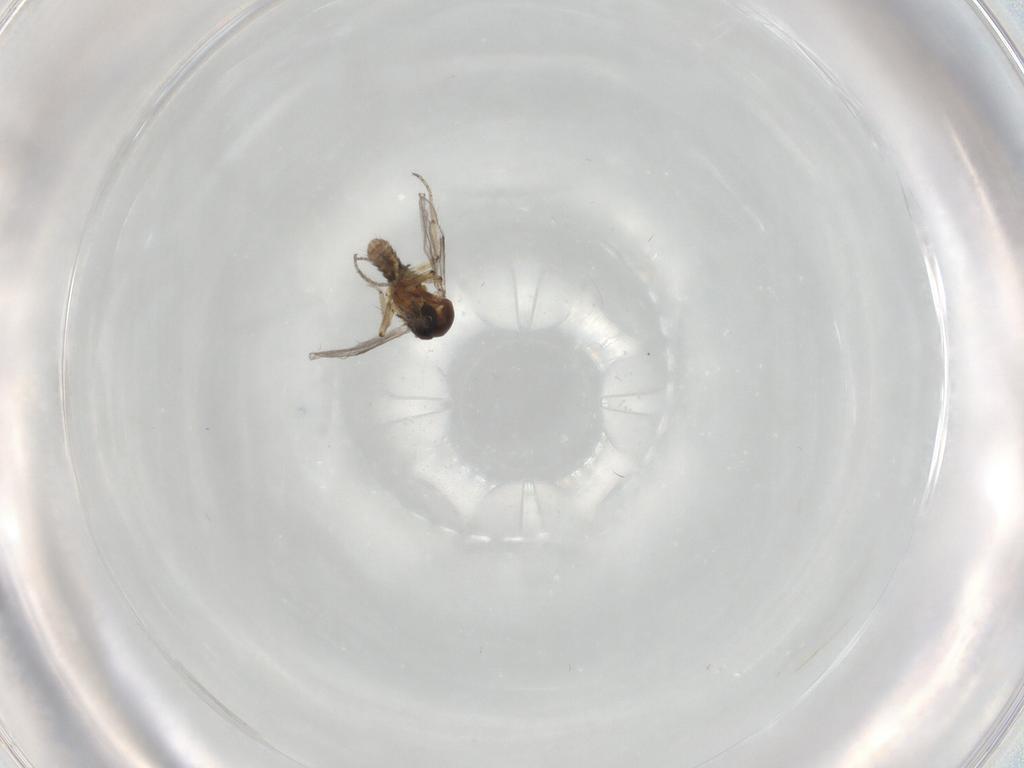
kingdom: Animalia
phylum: Arthropoda
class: Insecta
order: Diptera
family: Ceratopogonidae
